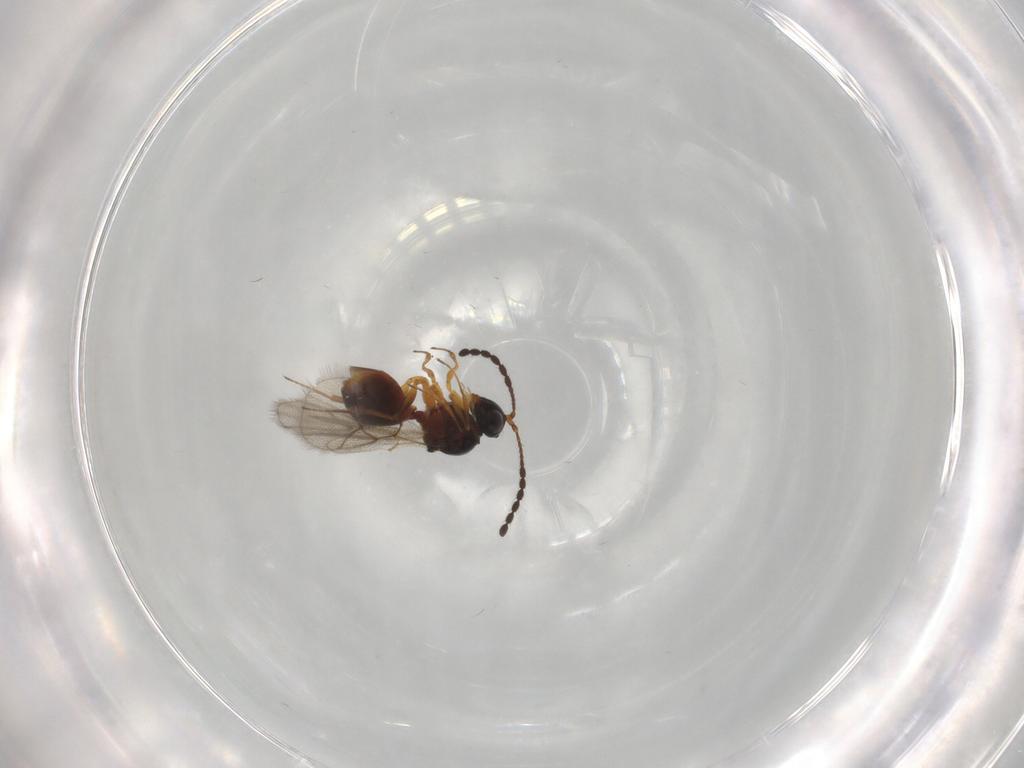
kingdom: Animalia
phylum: Arthropoda
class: Insecta
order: Hymenoptera
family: Figitidae
